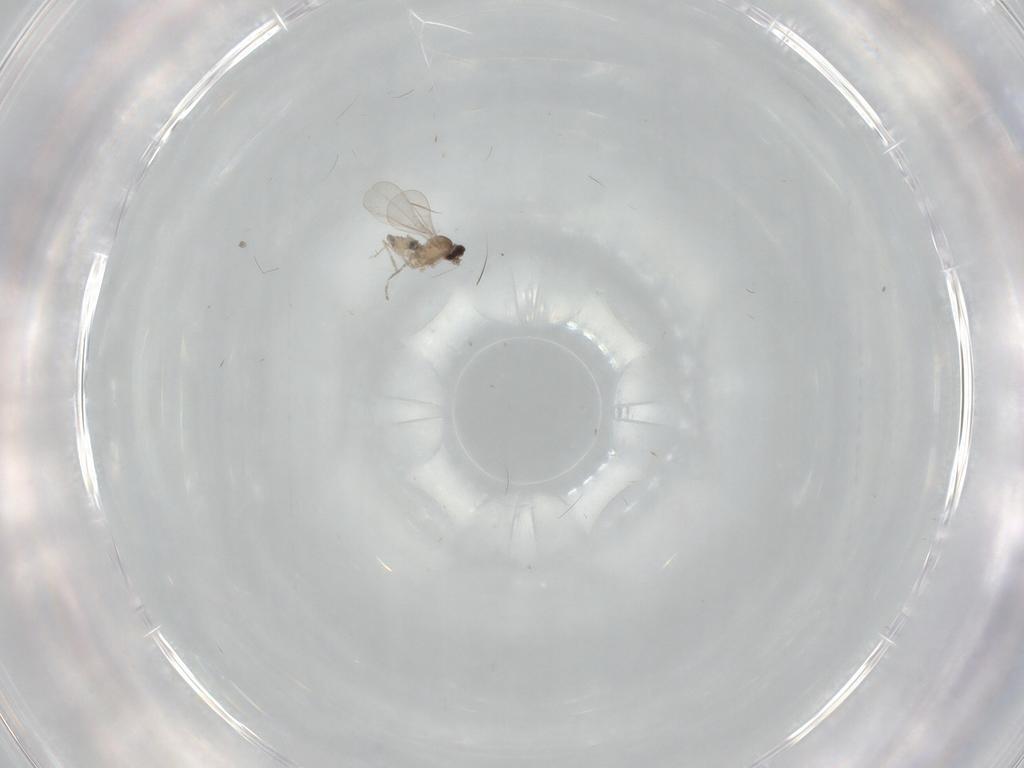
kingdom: Animalia
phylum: Arthropoda
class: Insecta
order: Diptera
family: Cecidomyiidae
